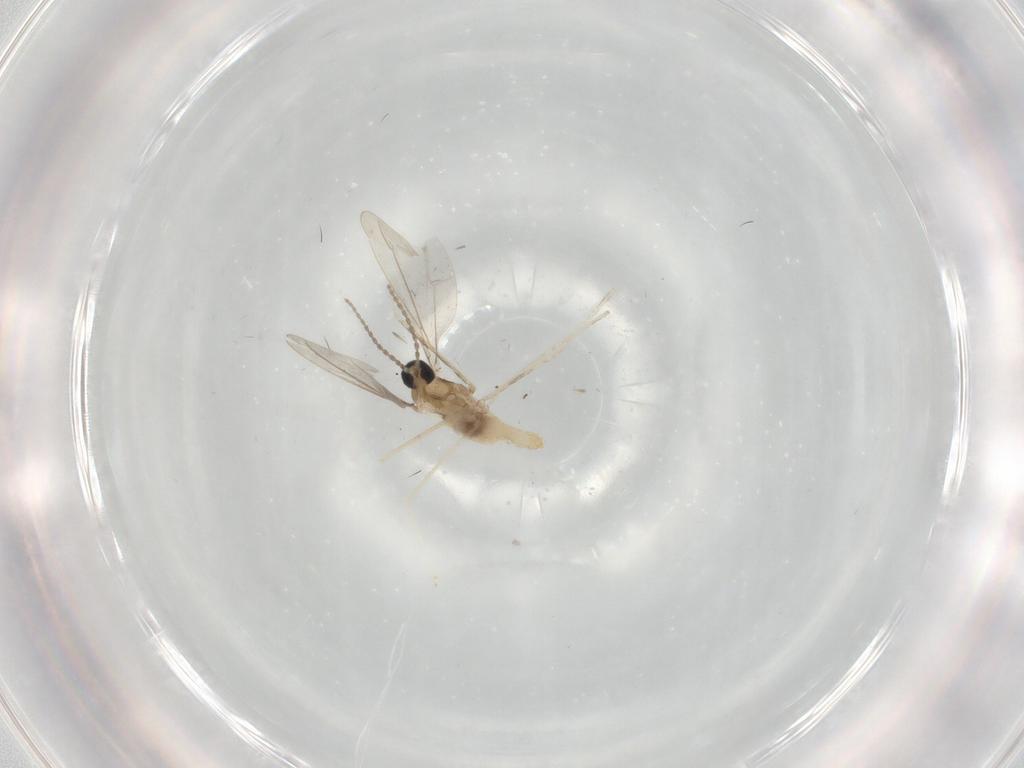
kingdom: Animalia
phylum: Arthropoda
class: Insecta
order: Diptera
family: Cecidomyiidae
